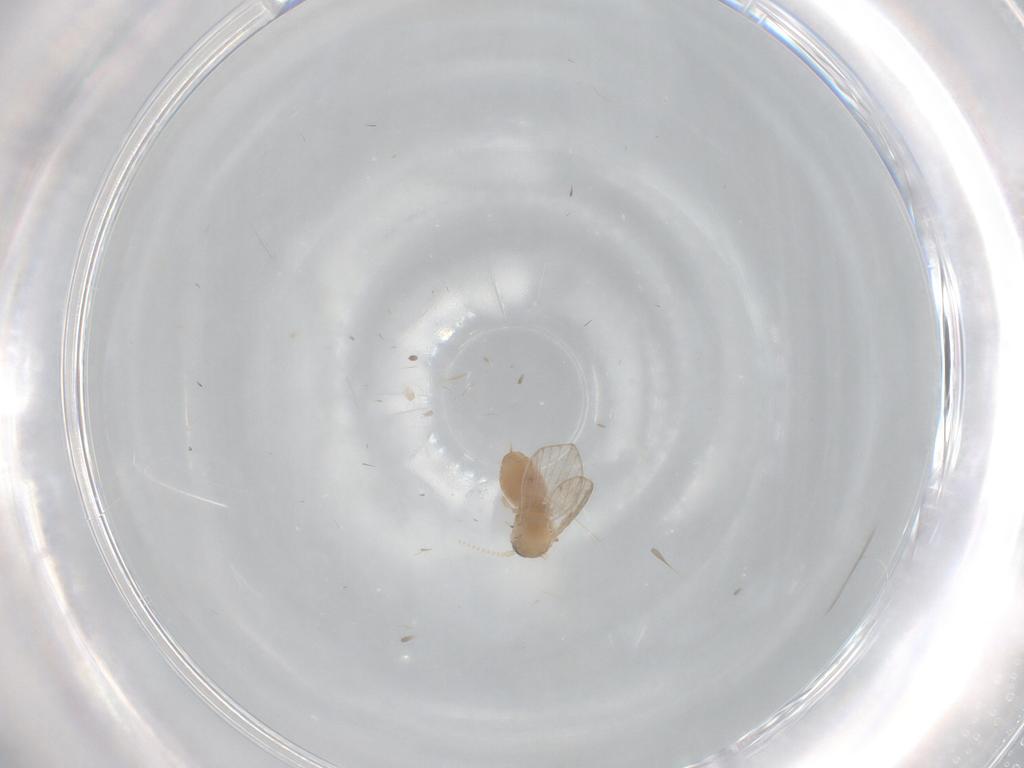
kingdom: Animalia
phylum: Arthropoda
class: Insecta
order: Diptera
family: Psychodidae
